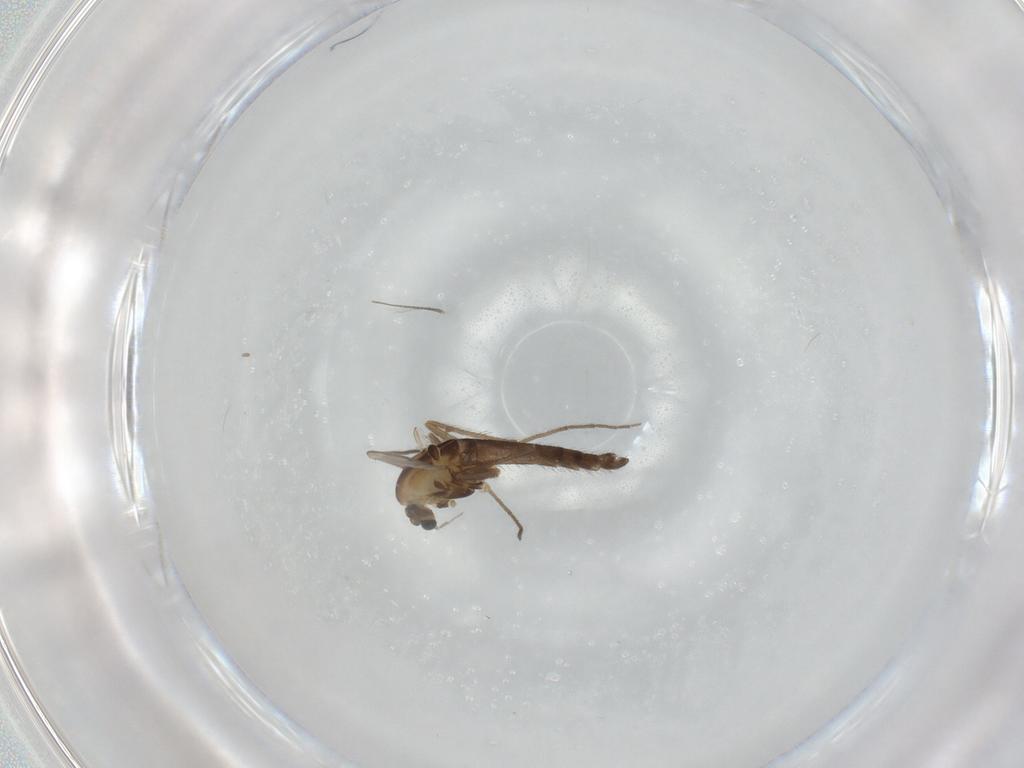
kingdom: Animalia
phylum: Arthropoda
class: Insecta
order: Diptera
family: Chironomidae
